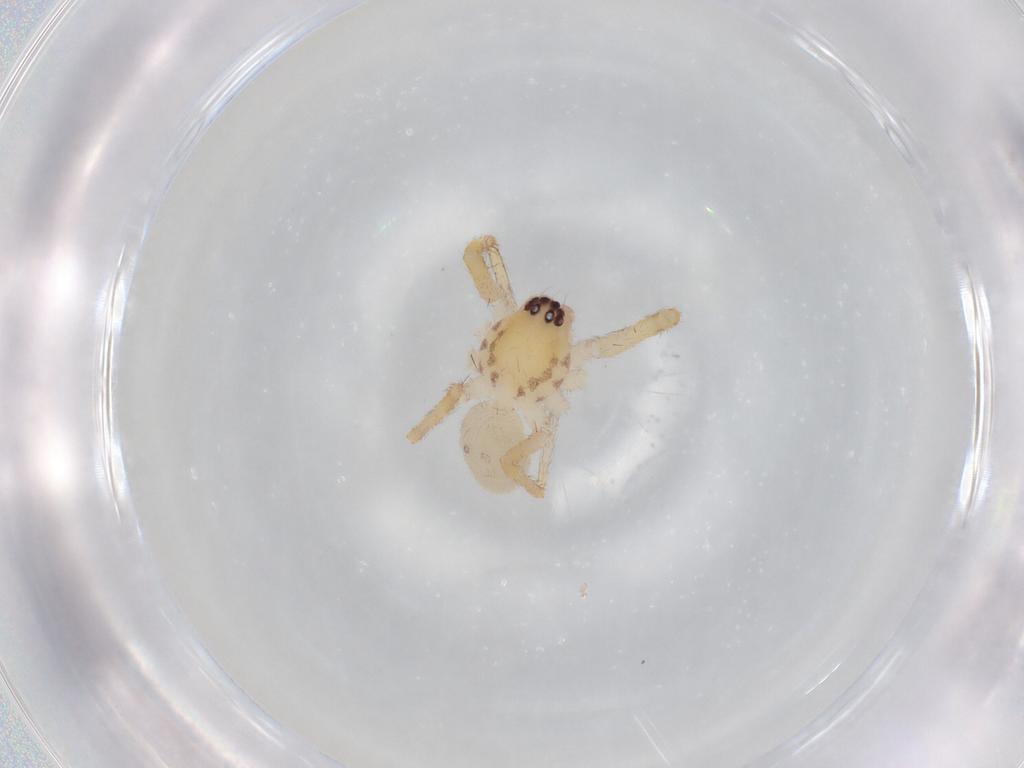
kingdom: Animalia
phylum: Arthropoda
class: Arachnida
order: Araneae
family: Corinnidae
